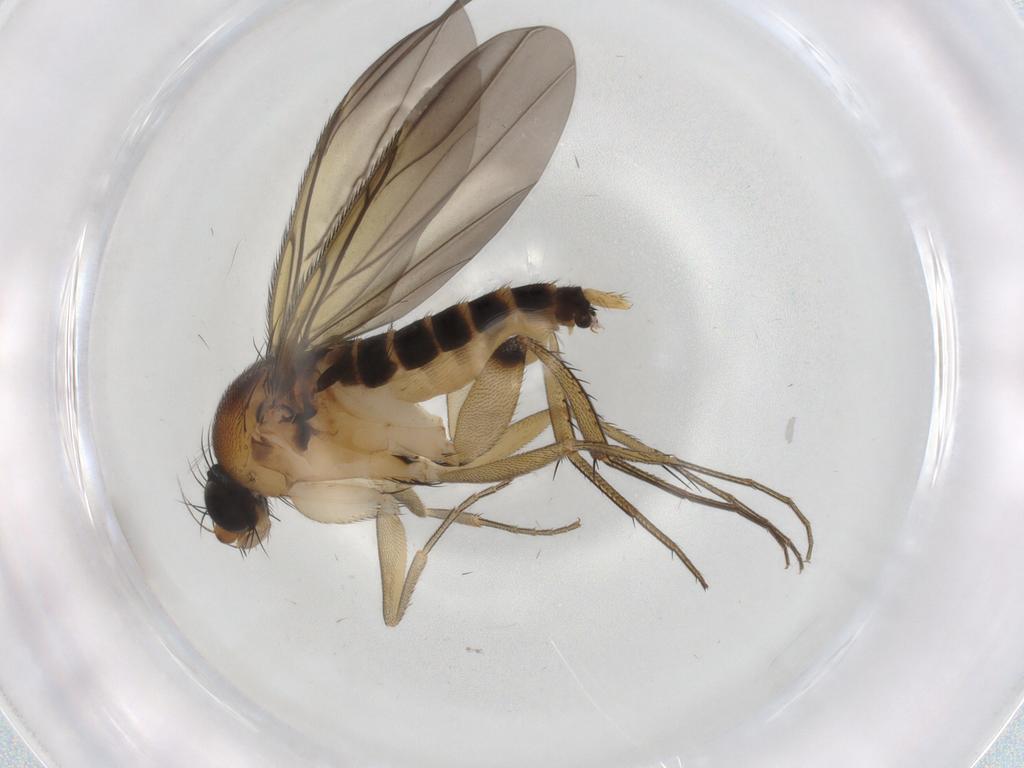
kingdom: Animalia
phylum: Arthropoda
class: Insecta
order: Diptera
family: Phoridae
